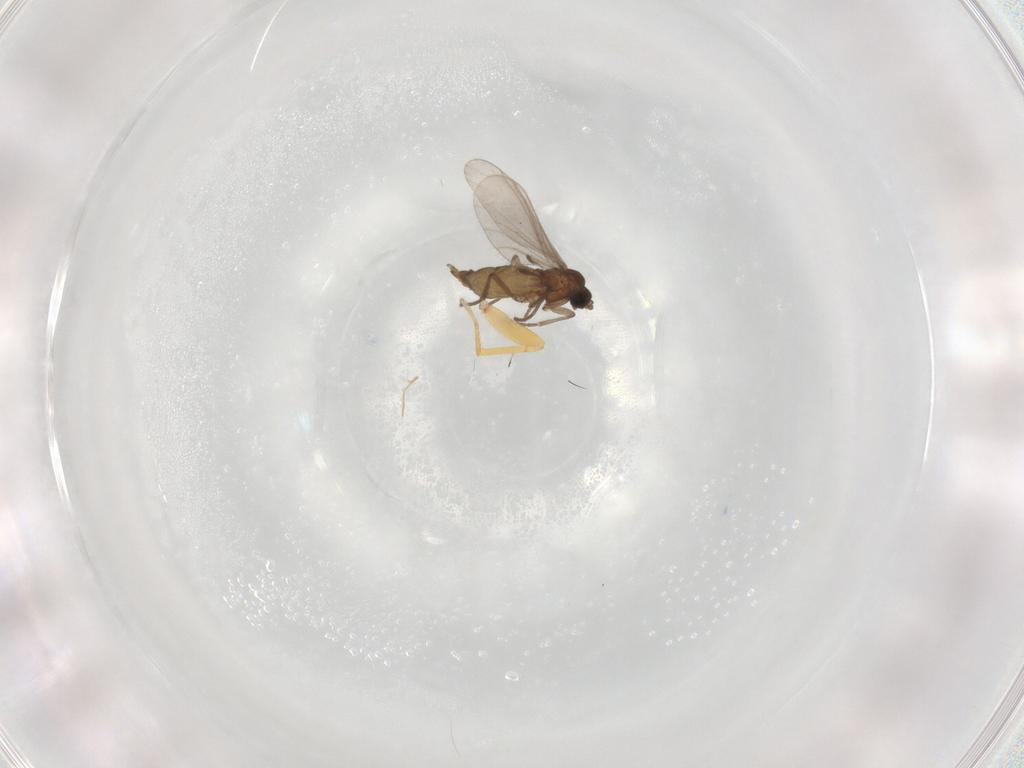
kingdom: Animalia
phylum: Arthropoda
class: Insecta
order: Diptera
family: Sciaridae
